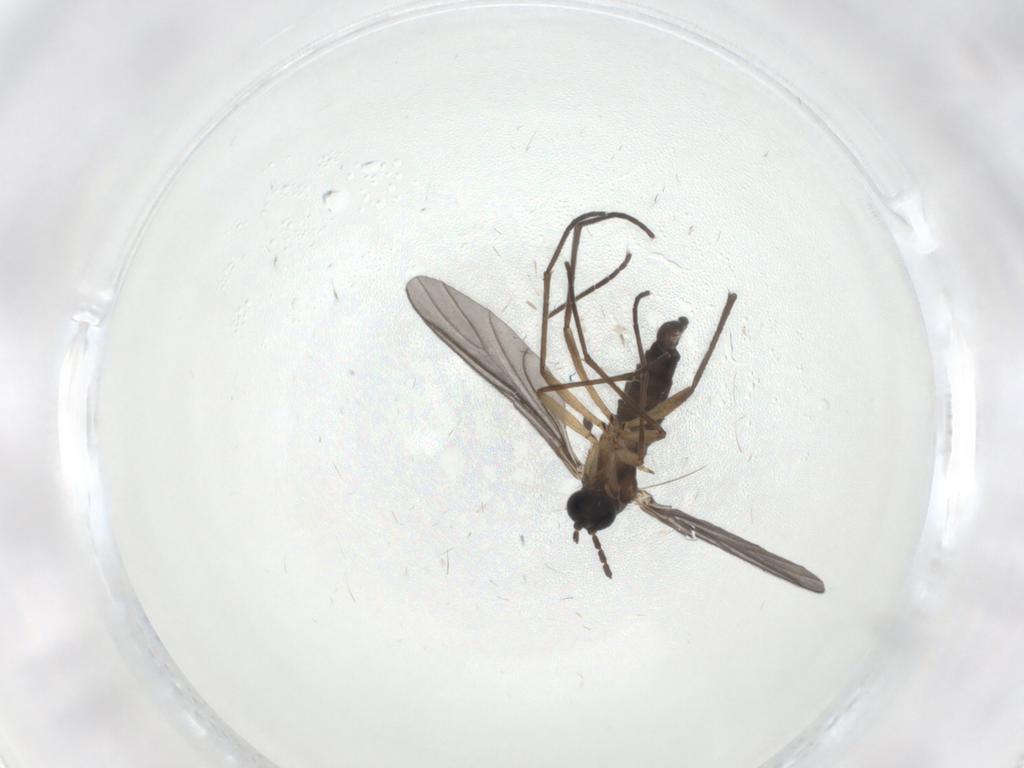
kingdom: Animalia
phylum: Arthropoda
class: Insecta
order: Diptera
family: Sciaridae
